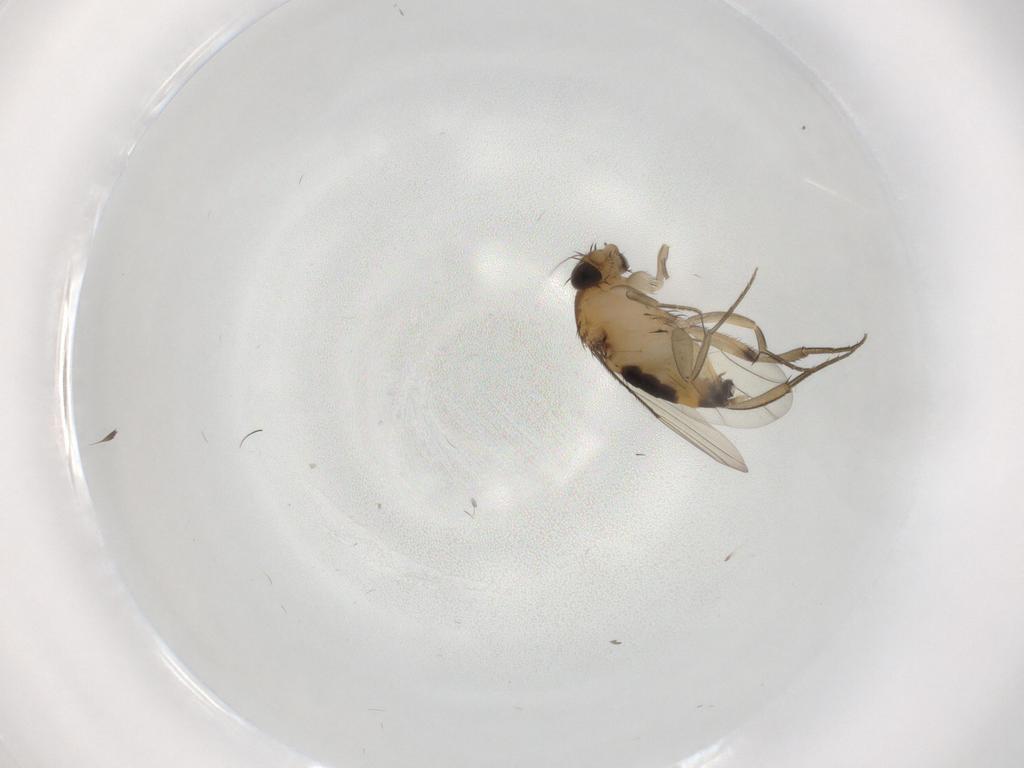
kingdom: Animalia
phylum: Arthropoda
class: Insecta
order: Diptera
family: Phoridae
